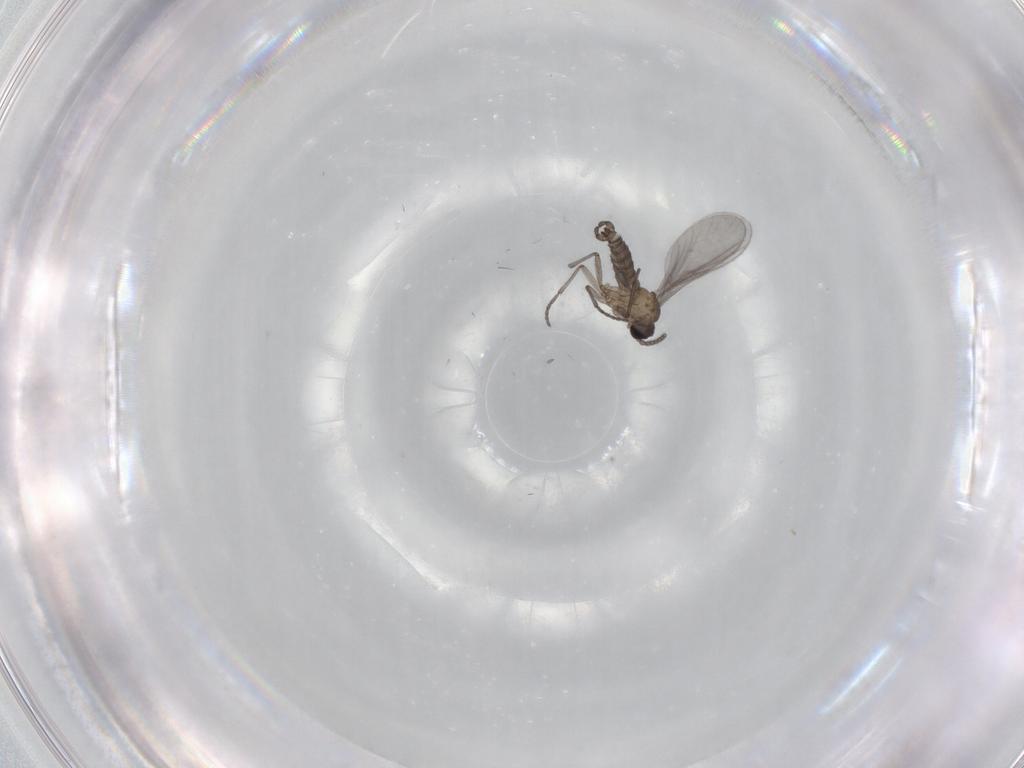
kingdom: Animalia
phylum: Arthropoda
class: Insecta
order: Diptera
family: Sciaridae
